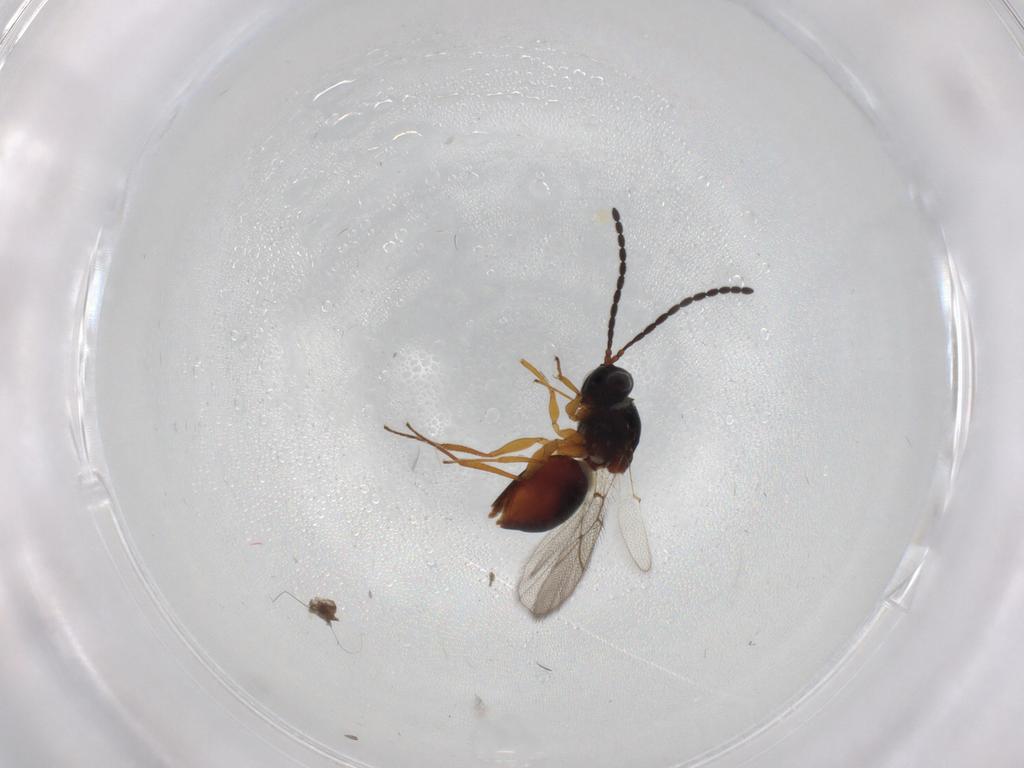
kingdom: Animalia
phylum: Arthropoda
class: Insecta
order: Hymenoptera
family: Figitidae
